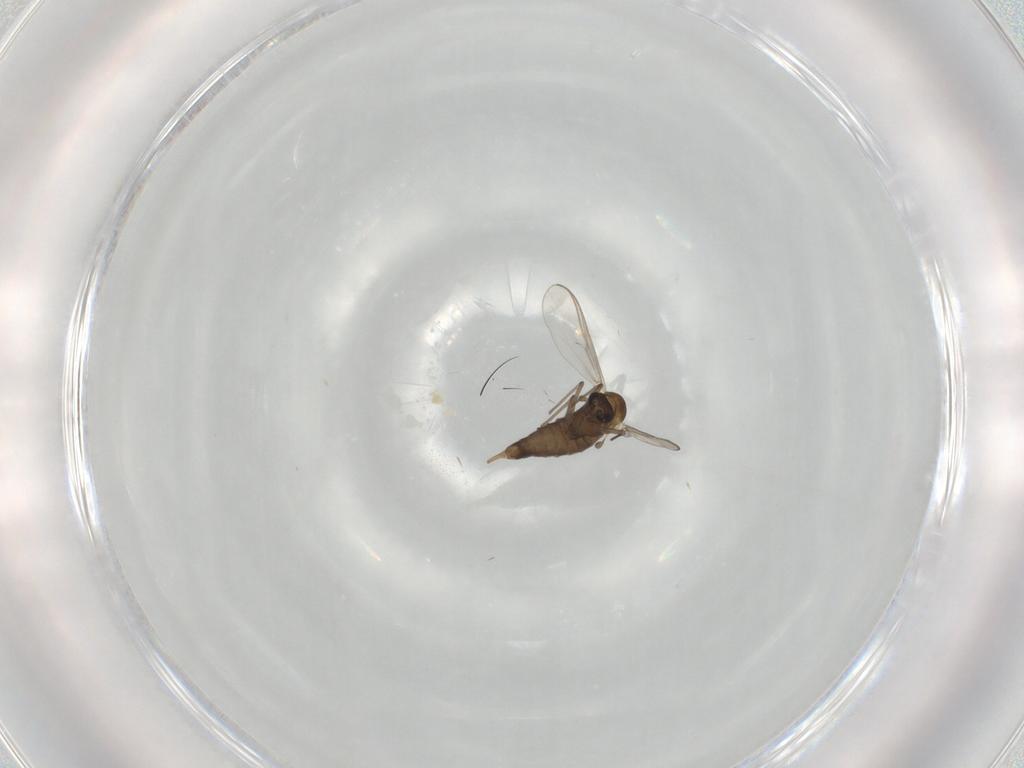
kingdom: Animalia
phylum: Arthropoda
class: Insecta
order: Diptera
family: Chironomidae
